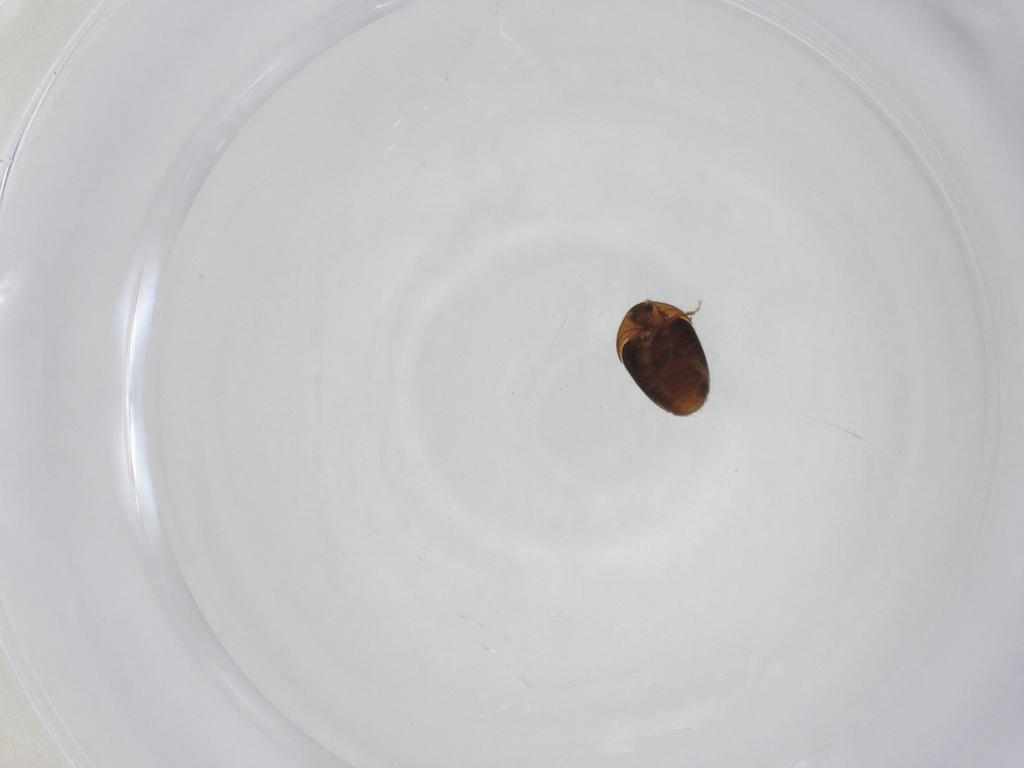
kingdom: Animalia
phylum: Arthropoda
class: Insecta
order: Coleoptera
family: Corylophidae
